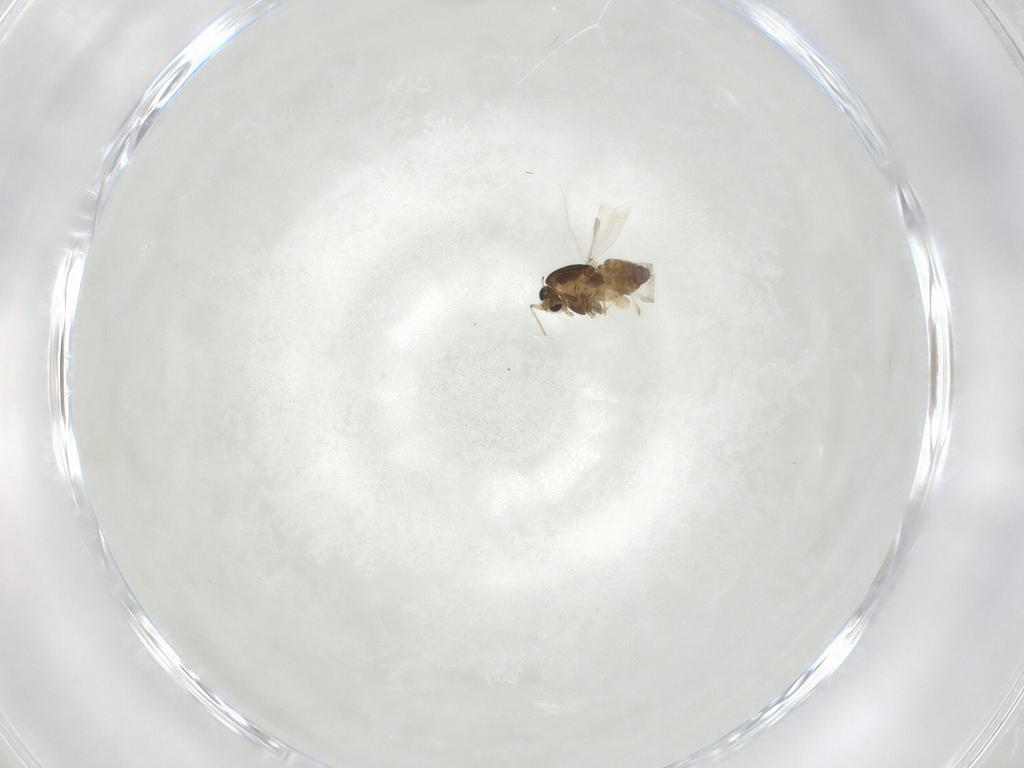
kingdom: Animalia
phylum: Arthropoda
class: Insecta
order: Diptera
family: Chironomidae
